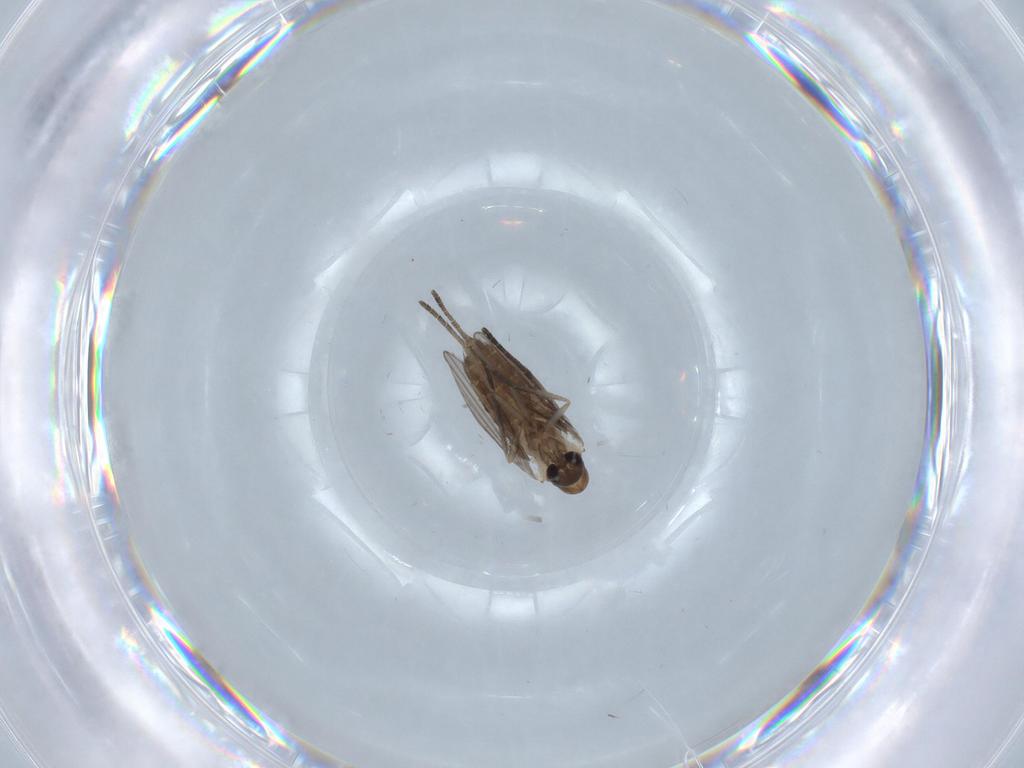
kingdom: Animalia
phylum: Arthropoda
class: Insecta
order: Diptera
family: Psychodidae
